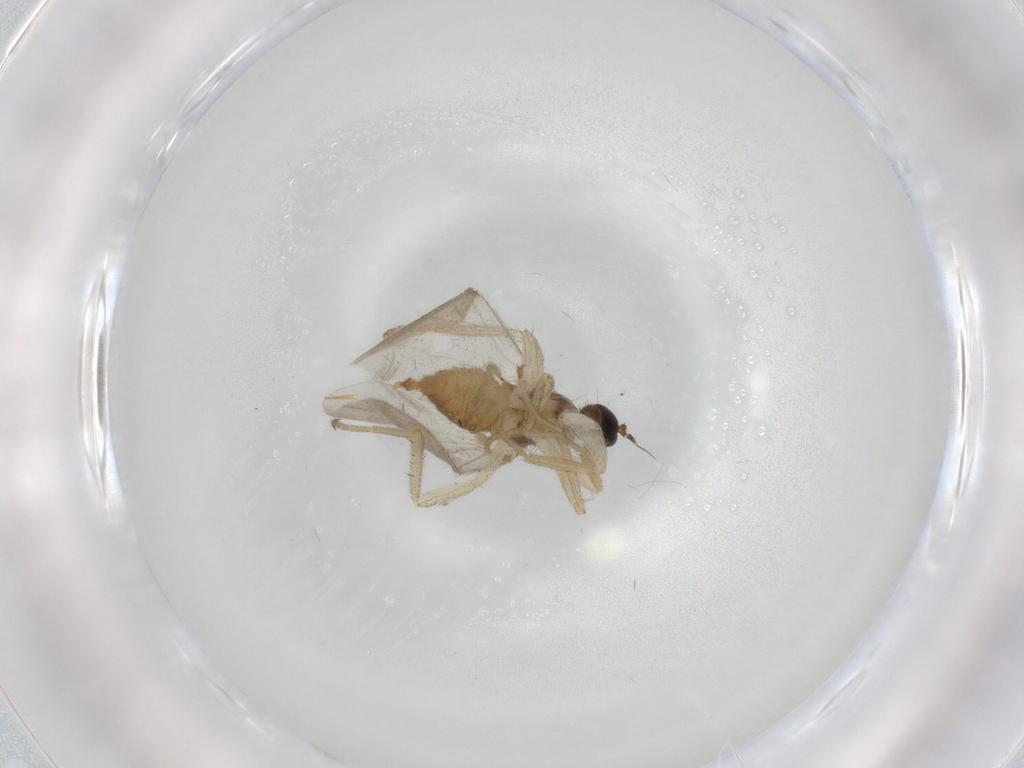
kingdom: Animalia
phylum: Arthropoda
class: Insecta
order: Diptera
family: Hybotidae
